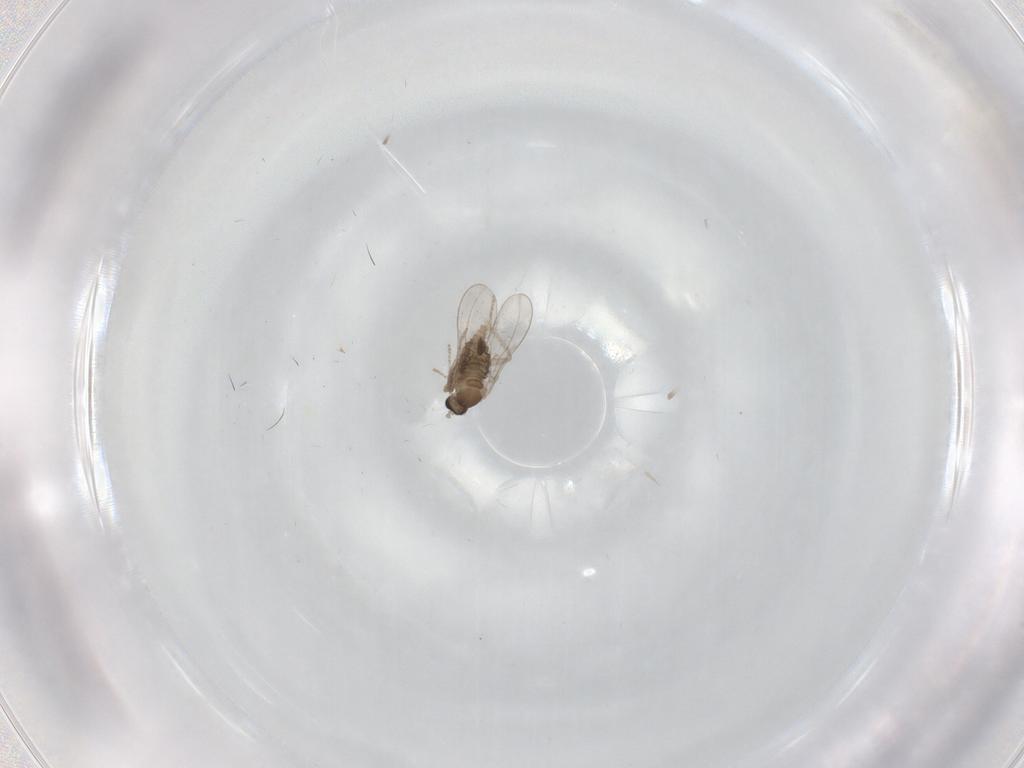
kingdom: Animalia
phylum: Arthropoda
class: Insecta
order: Diptera
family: Cecidomyiidae
